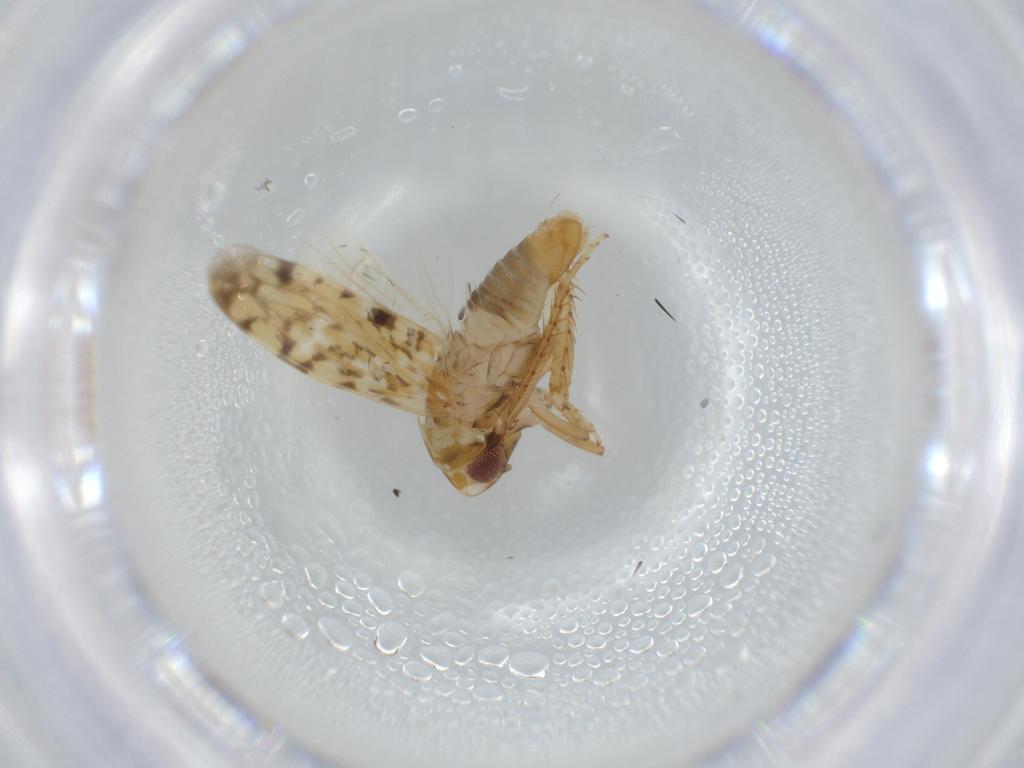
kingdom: Animalia
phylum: Arthropoda
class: Insecta
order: Hemiptera
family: Cicadellidae
